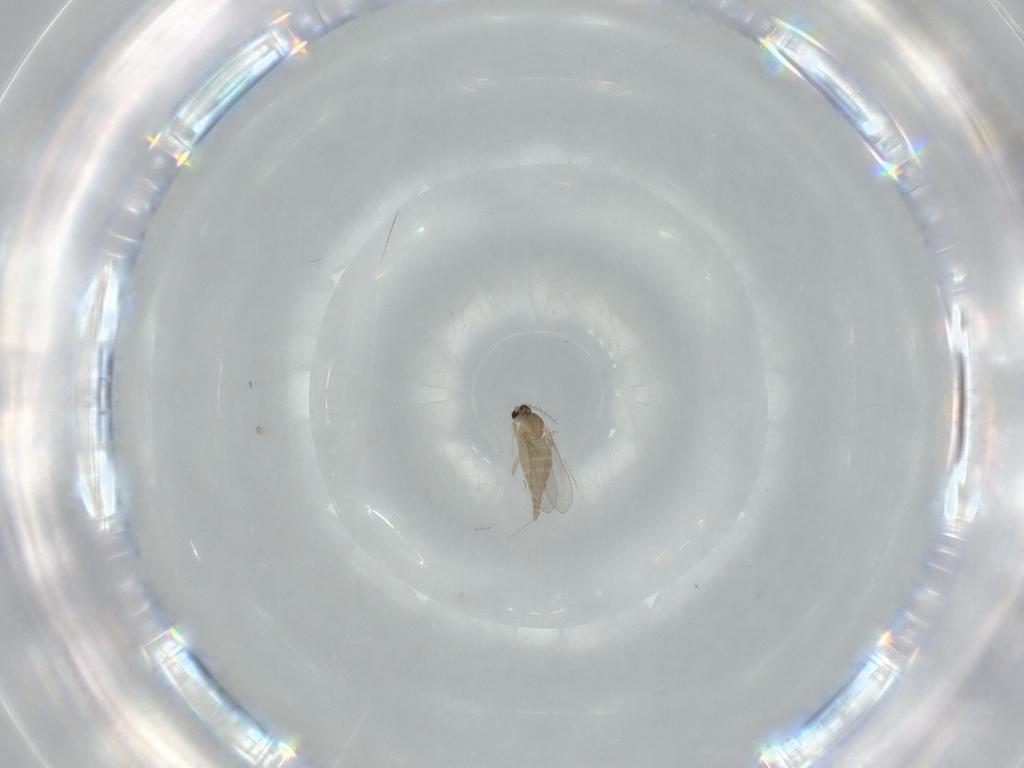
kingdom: Animalia
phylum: Arthropoda
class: Insecta
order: Diptera
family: Cecidomyiidae
